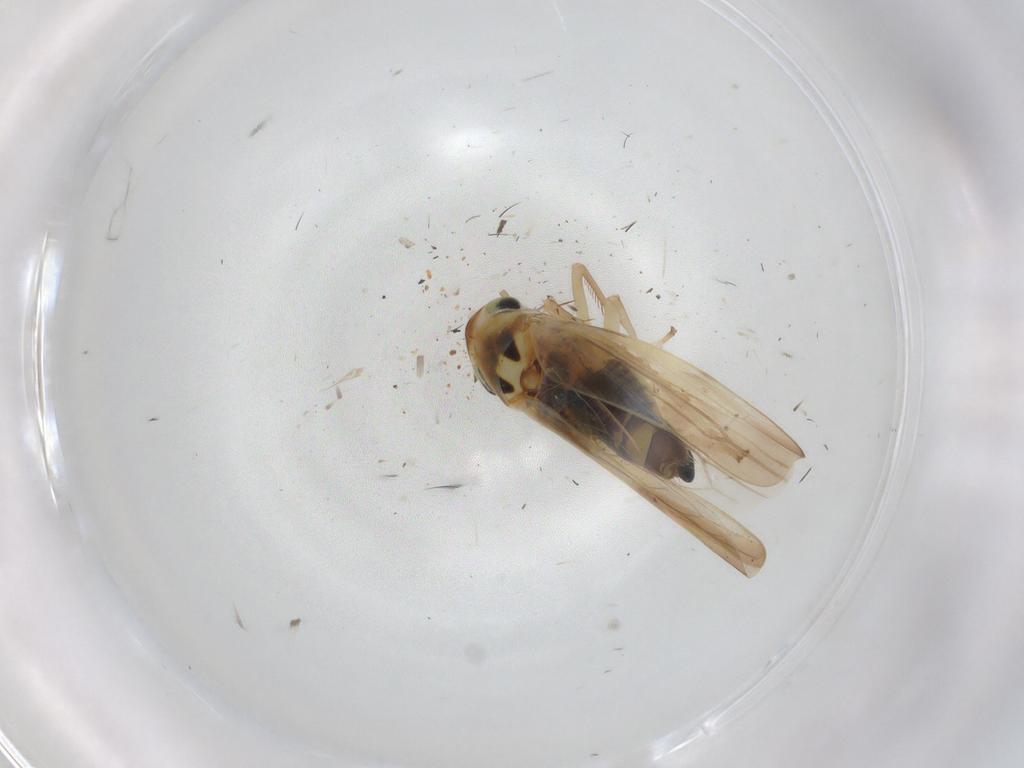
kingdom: Animalia
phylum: Arthropoda
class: Insecta
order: Hemiptera
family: Cicadellidae
